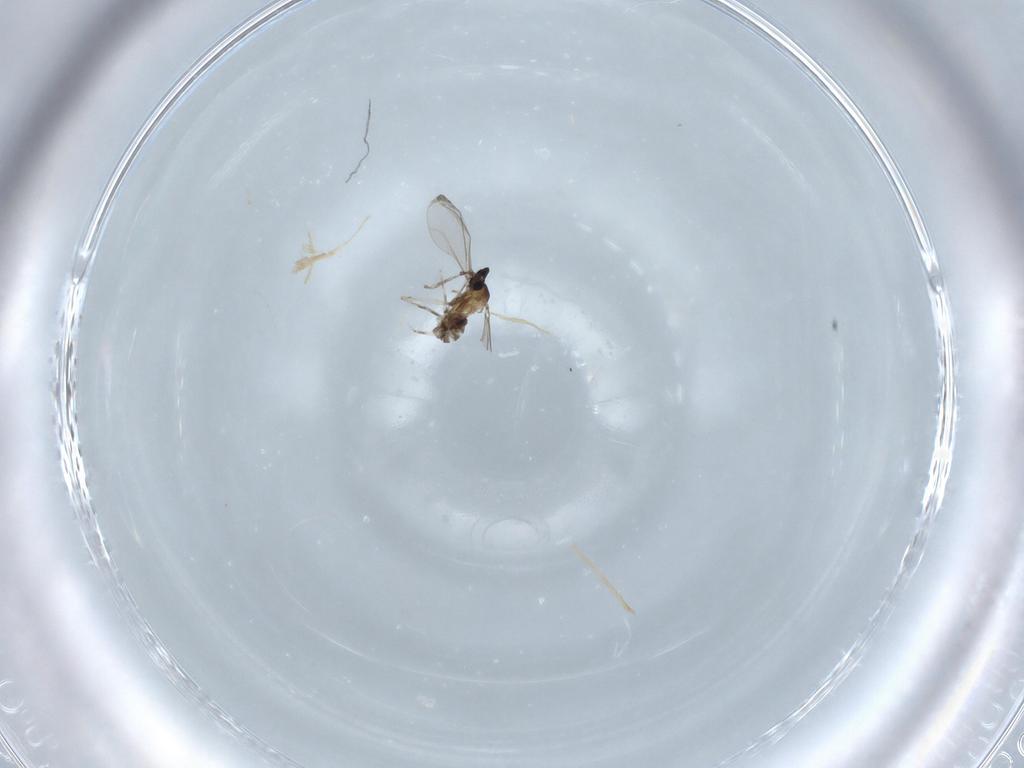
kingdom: Animalia
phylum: Arthropoda
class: Insecta
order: Diptera
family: Cecidomyiidae
